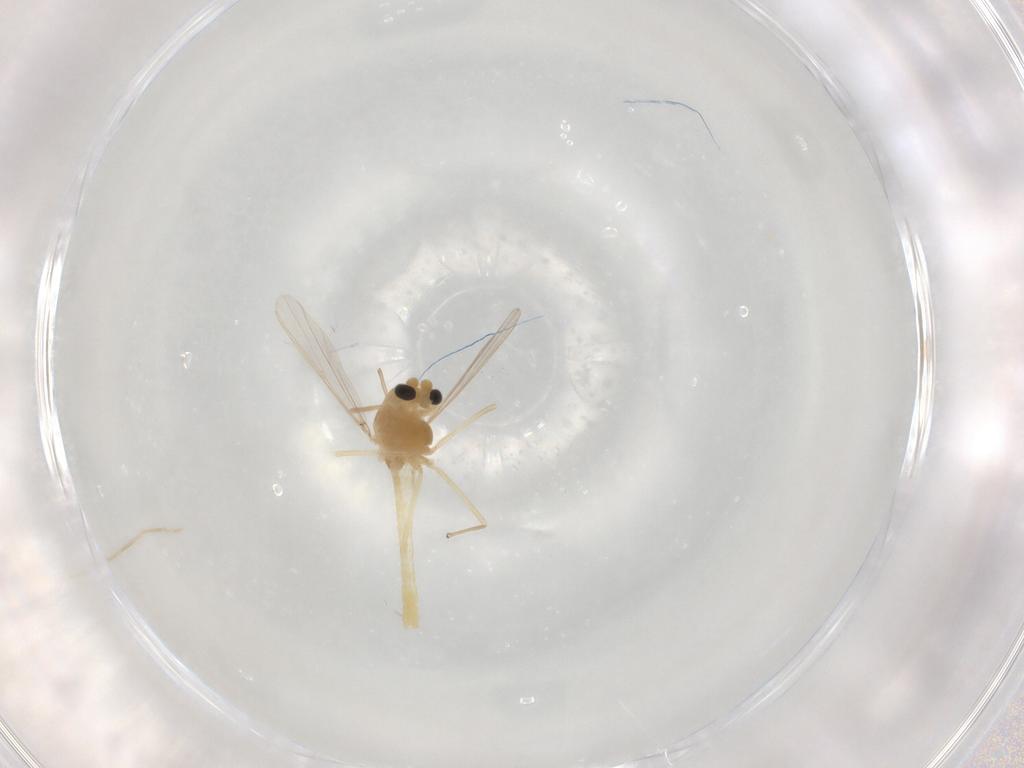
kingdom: Animalia
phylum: Arthropoda
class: Insecta
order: Diptera
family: Chironomidae
